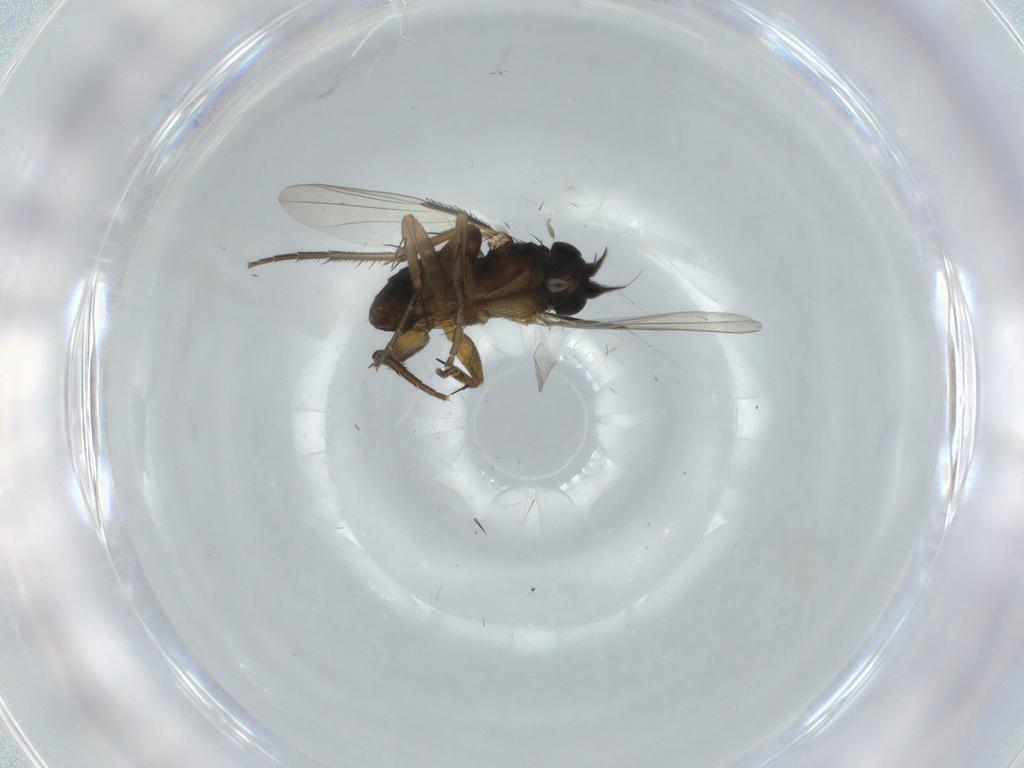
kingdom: Animalia
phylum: Arthropoda
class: Insecta
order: Diptera
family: Phoridae
